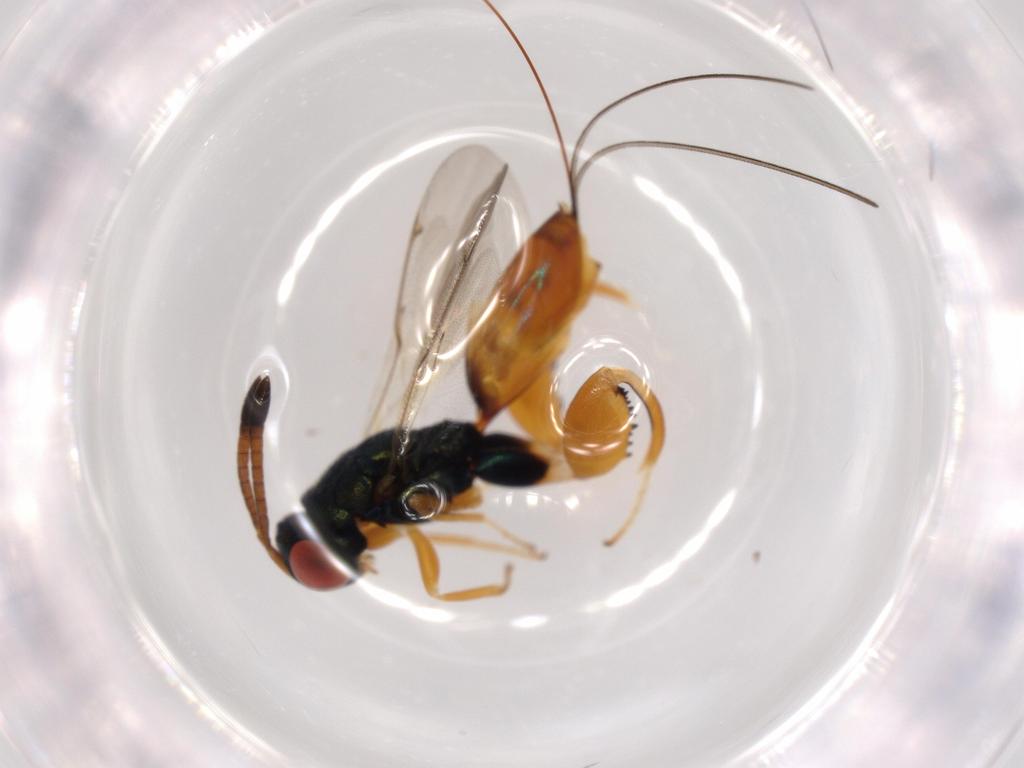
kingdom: Animalia
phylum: Arthropoda
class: Insecta
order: Hymenoptera
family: Torymidae
